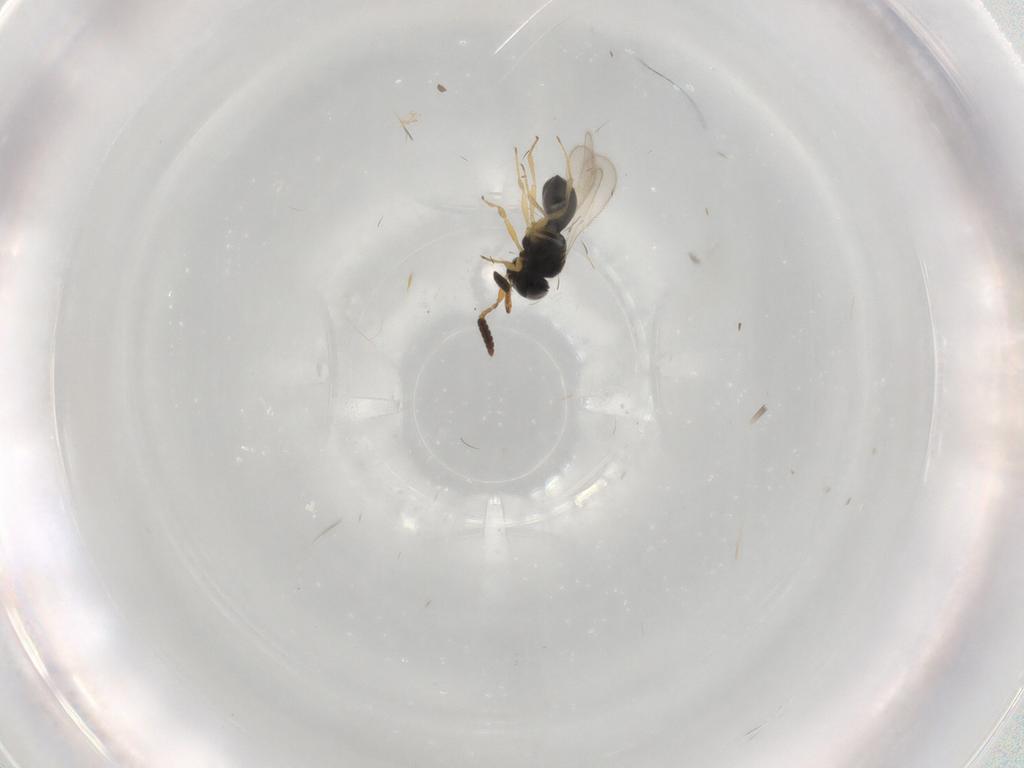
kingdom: Animalia
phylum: Arthropoda
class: Insecta
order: Hymenoptera
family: Scelionidae
